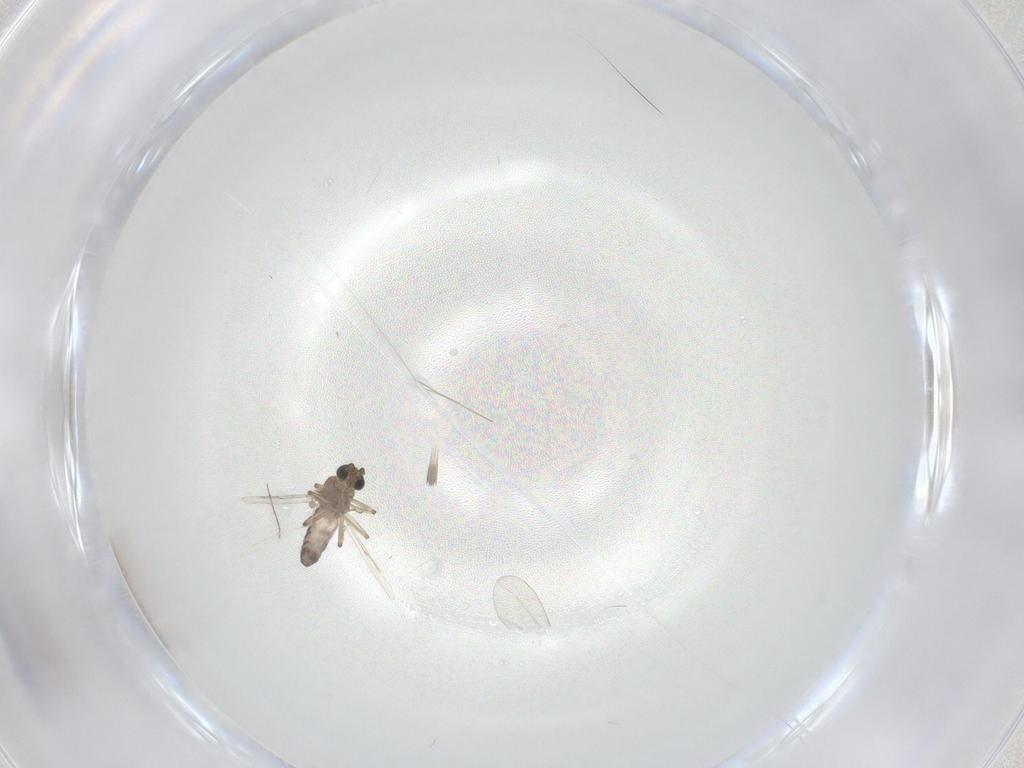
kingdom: Animalia
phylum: Arthropoda
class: Insecta
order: Diptera
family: Ceratopogonidae
